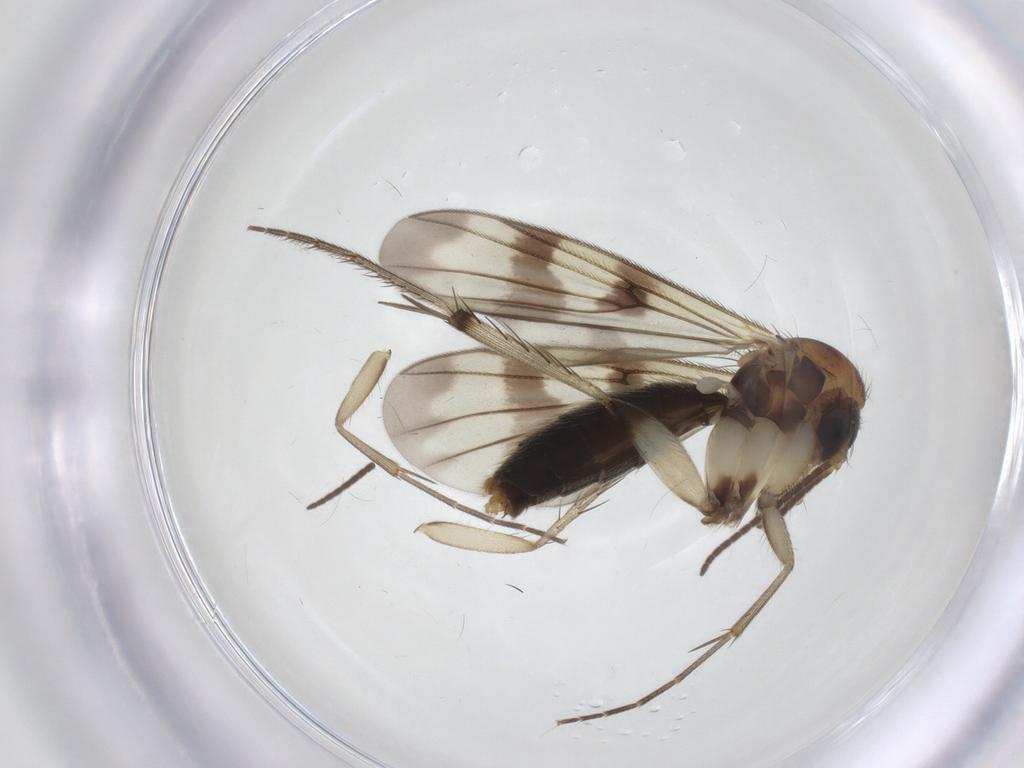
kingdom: Animalia
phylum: Arthropoda
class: Insecta
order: Diptera
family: Mycetophilidae
